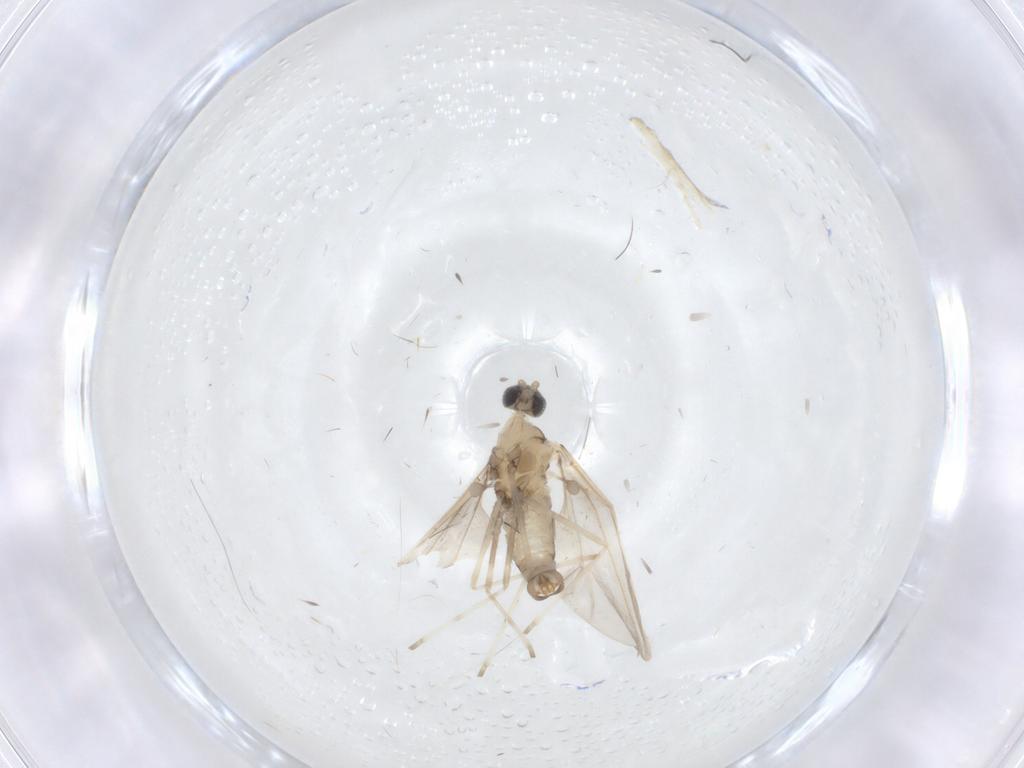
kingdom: Animalia
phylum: Arthropoda
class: Insecta
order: Diptera
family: Cecidomyiidae
